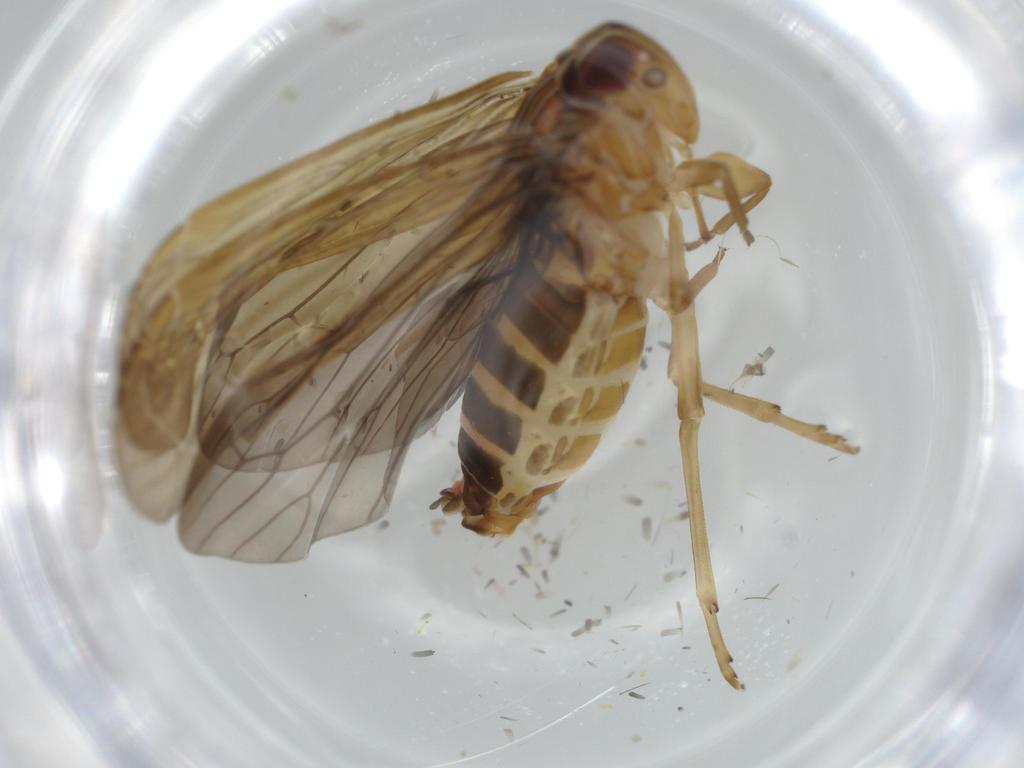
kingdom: Animalia
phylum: Arthropoda
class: Insecta
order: Hemiptera
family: Achilidae
